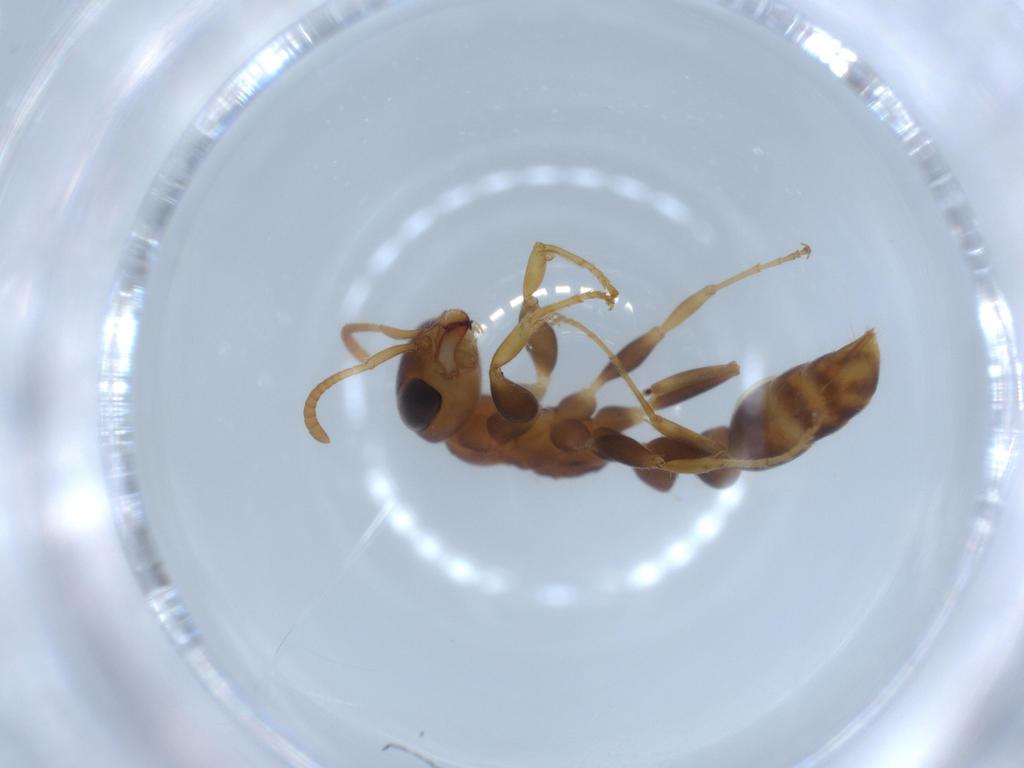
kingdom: Animalia
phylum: Arthropoda
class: Insecta
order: Hymenoptera
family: Formicidae
